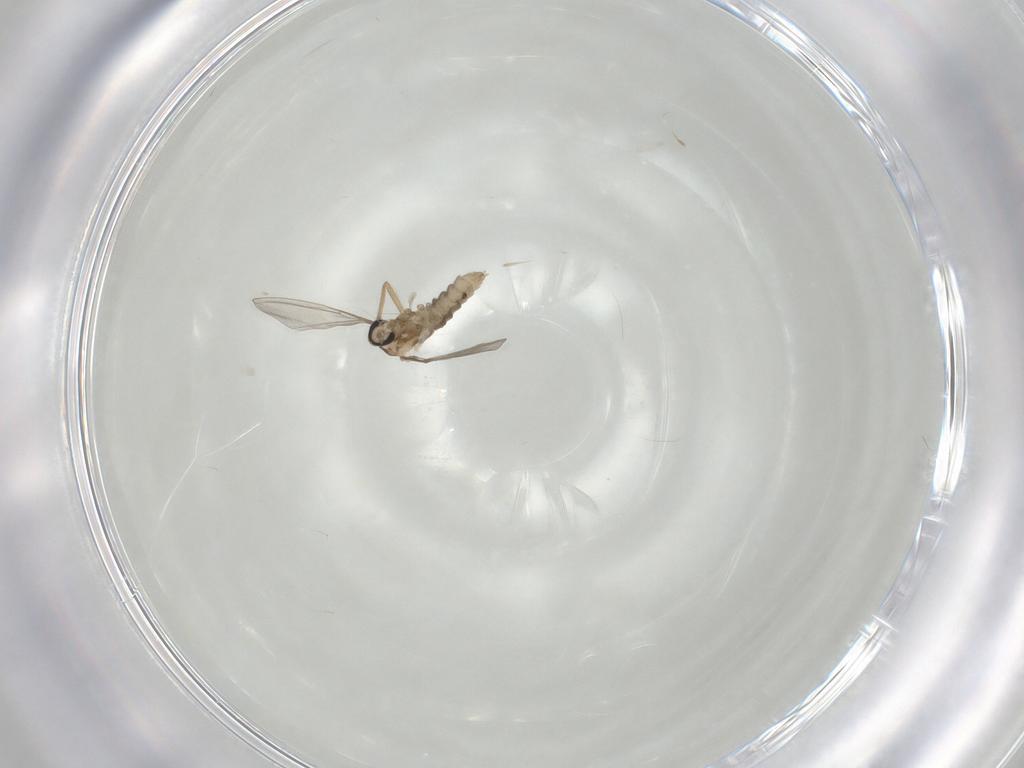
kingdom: Animalia
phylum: Arthropoda
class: Insecta
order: Diptera
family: Cecidomyiidae
